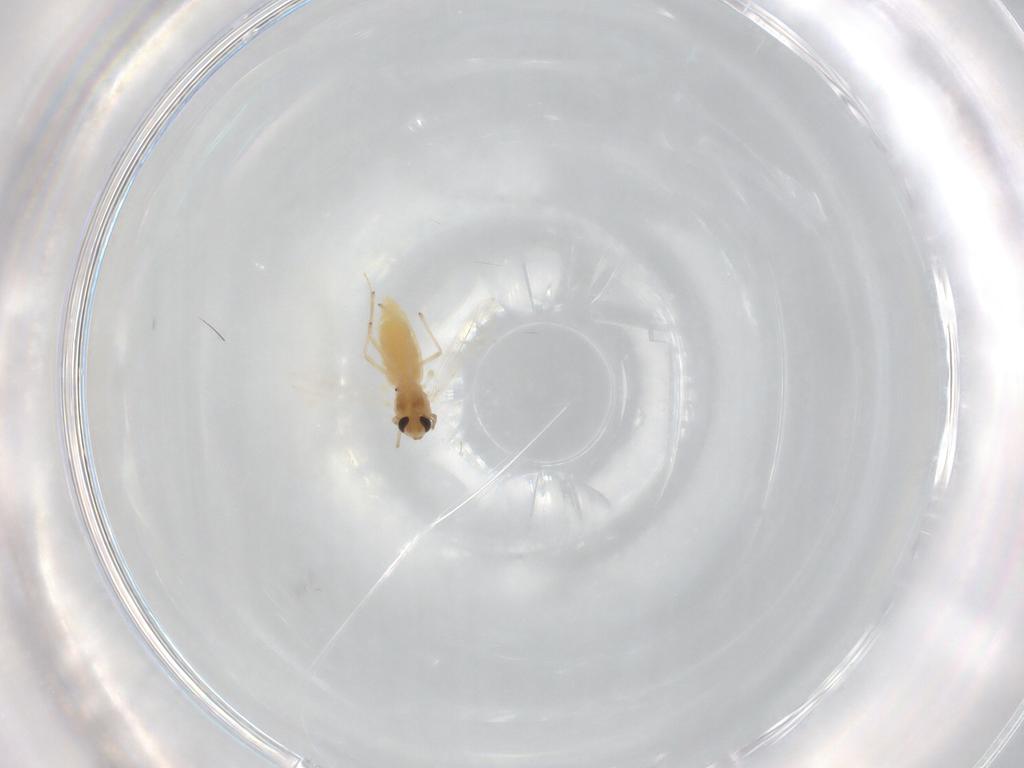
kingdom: Animalia
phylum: Arthropoda
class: Insecta
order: Diptera
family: Chironomidae
